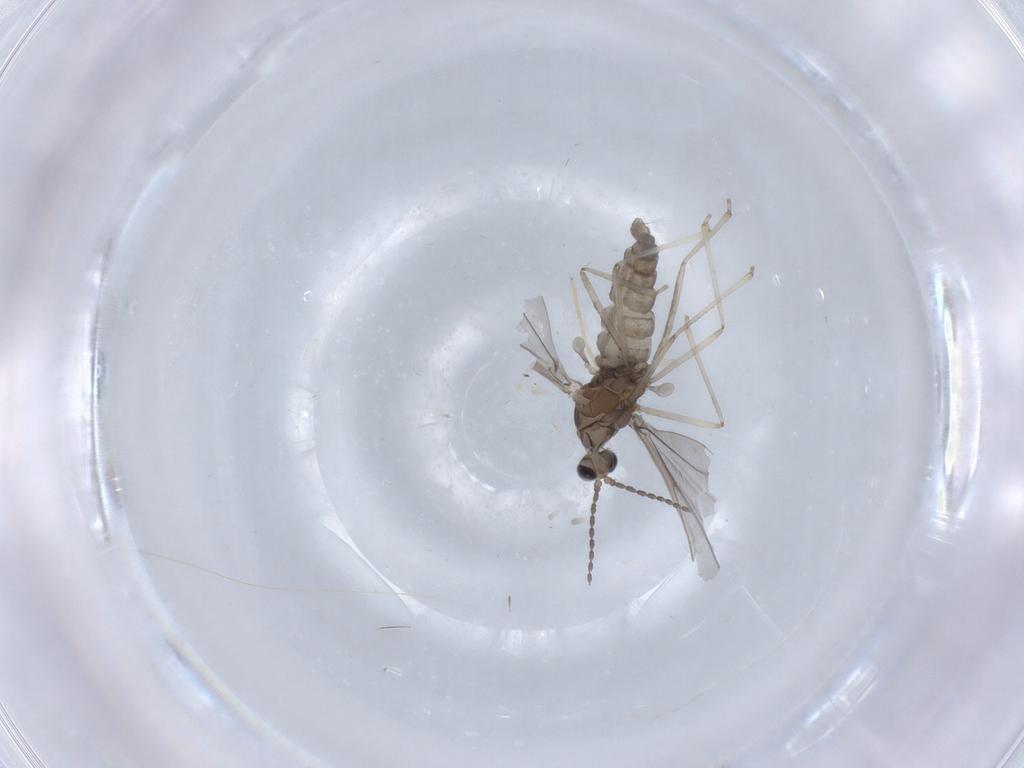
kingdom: Animalia
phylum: Arthropoda
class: Insecta
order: Diptera
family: Cecidomyiidae
